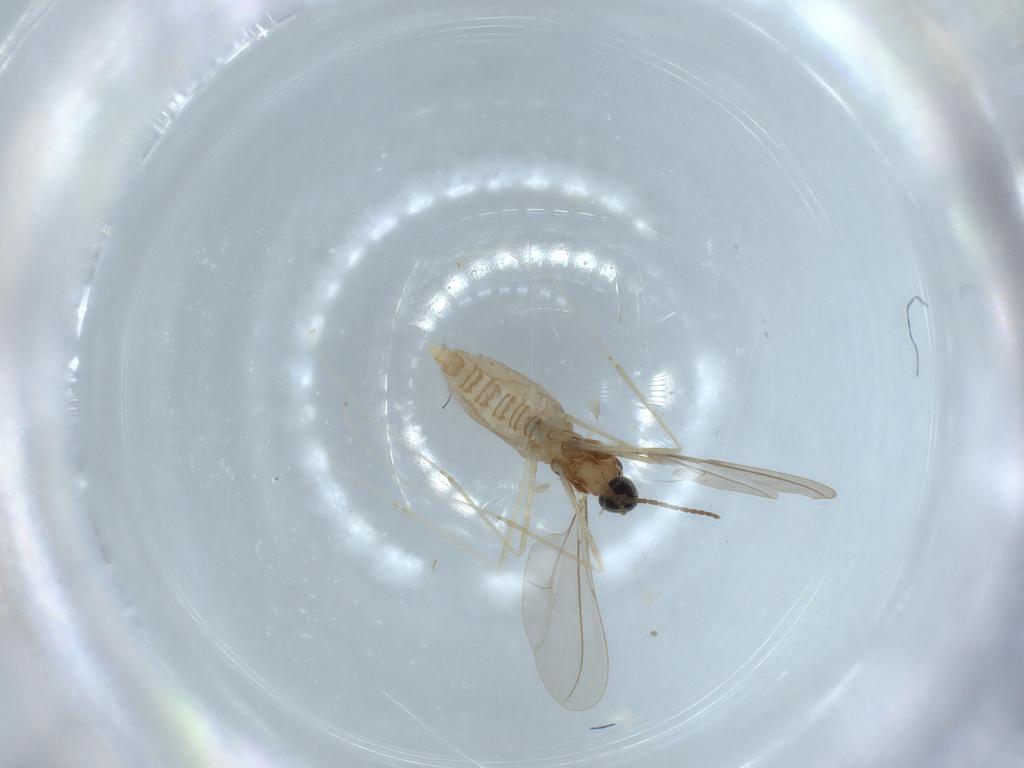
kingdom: Animalia
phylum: Arthropoda
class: Insecta
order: Diptera
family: Cecidomyiidae
